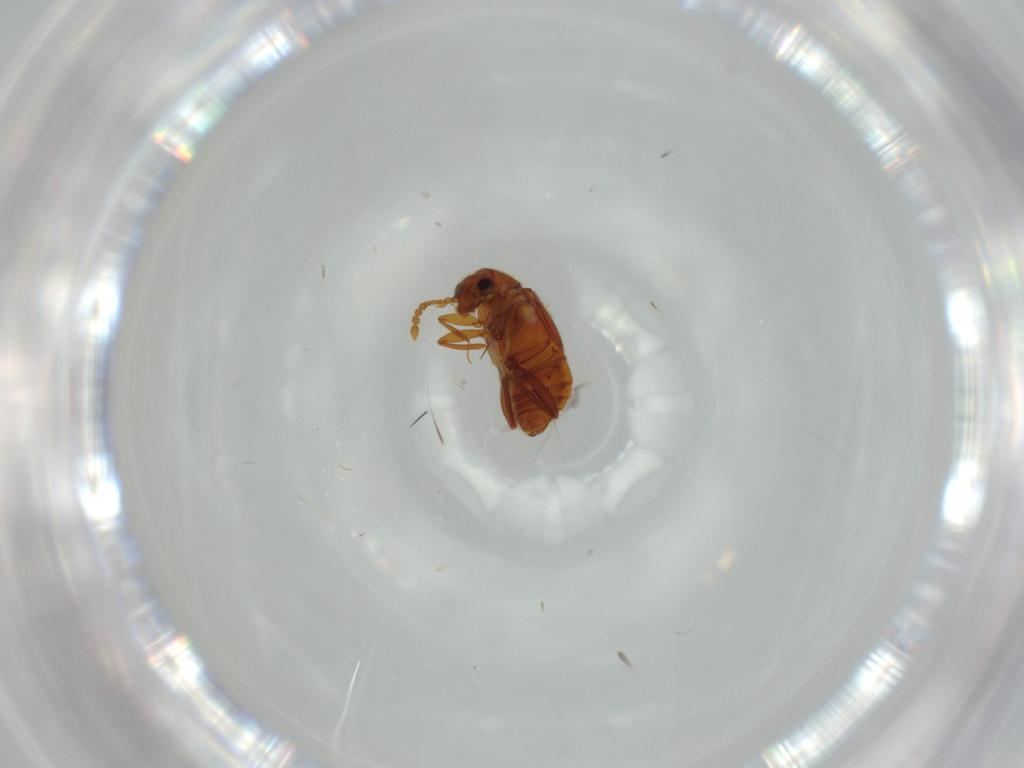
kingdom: Animalia
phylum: Arthropoda
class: Insecta
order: Coleoptera
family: Staphylinidae
